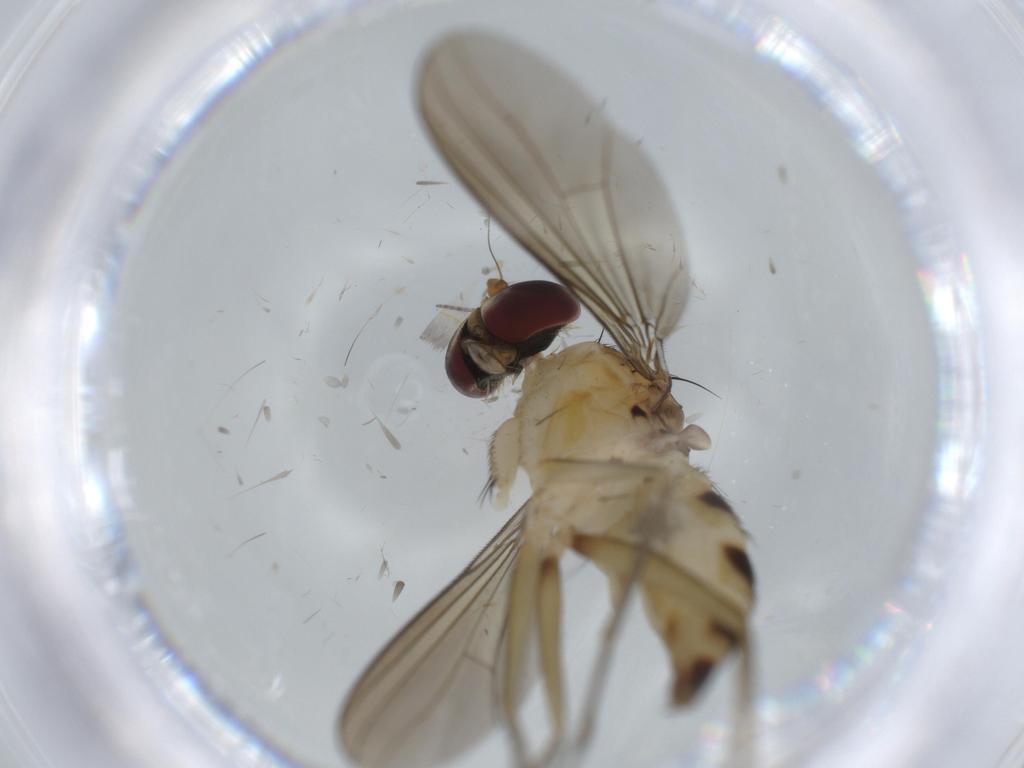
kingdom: Animalia
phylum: Arthropoda
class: Insecta
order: Diptera
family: Dolichopodidae
